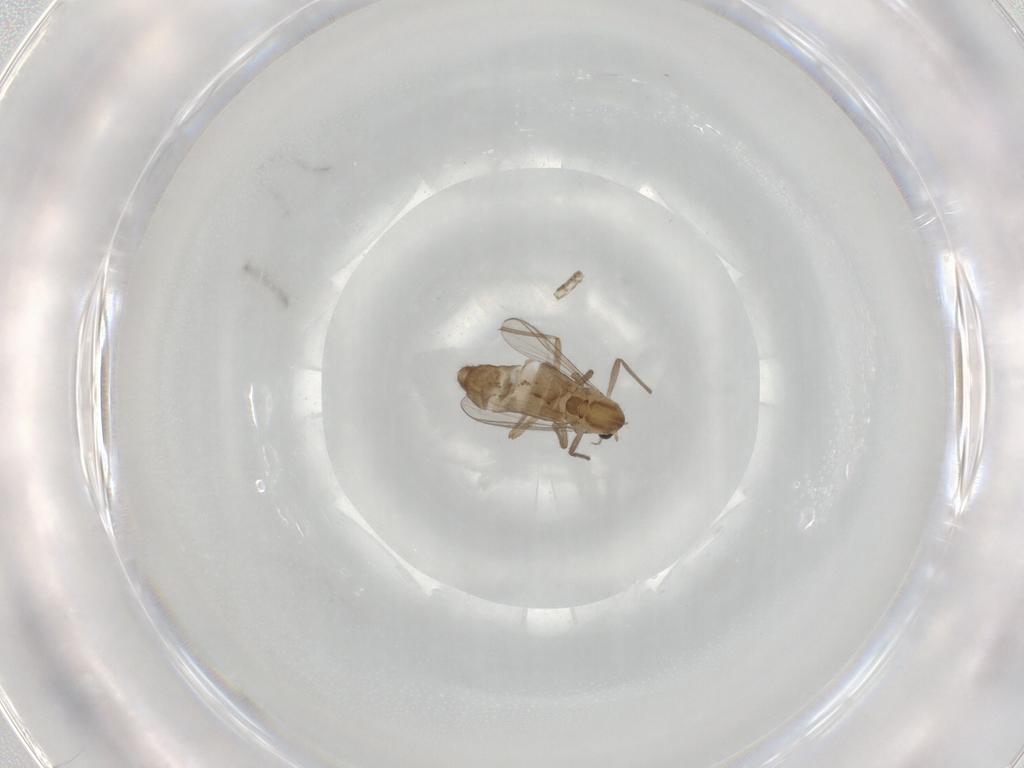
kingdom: Animalia
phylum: Arthropoda
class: Insecta
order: Diptera
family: Chironomidae
